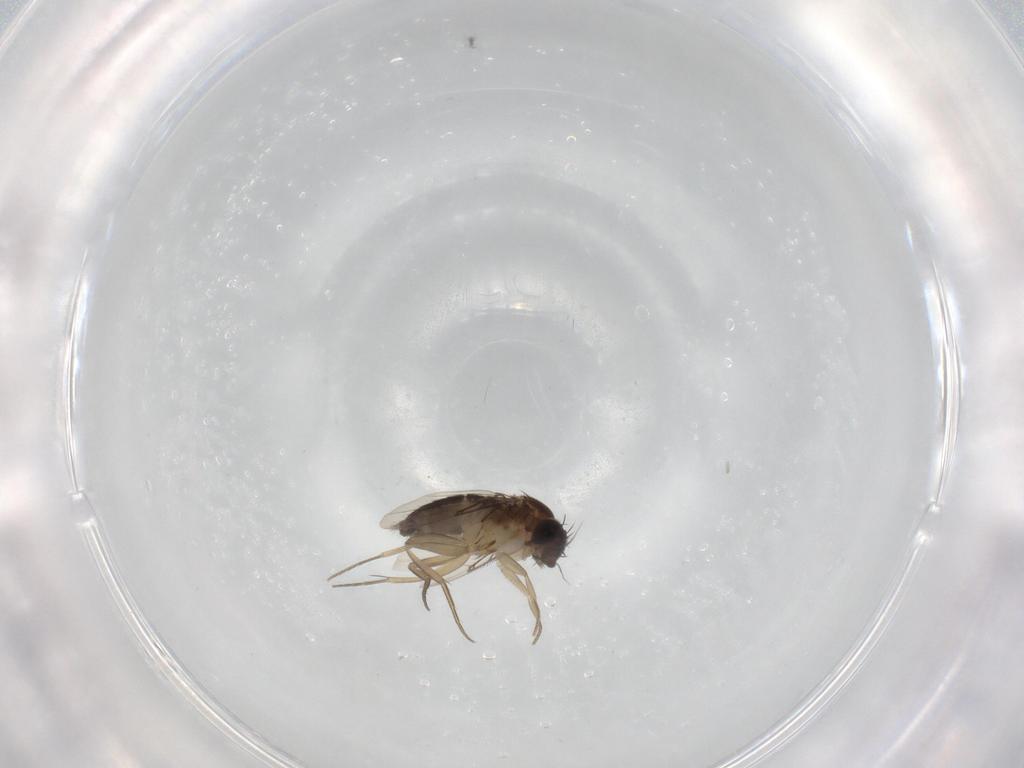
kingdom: Animalia
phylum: Arthropoda
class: Insecta
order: Diptera
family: Phoridae
